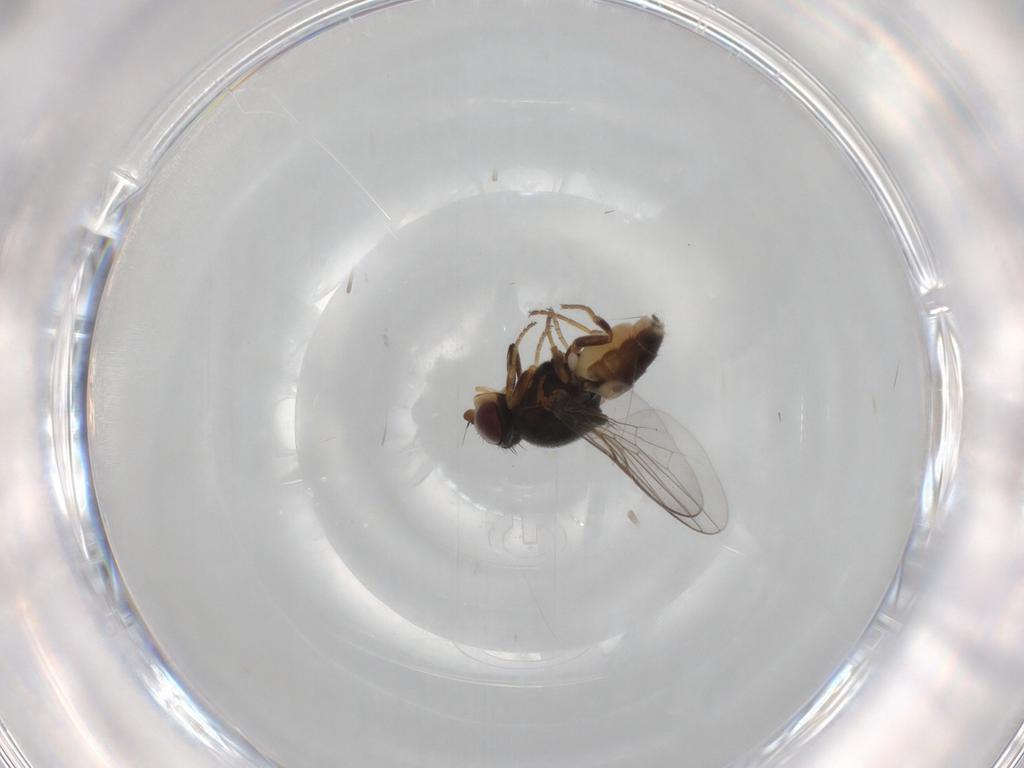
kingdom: Animalia
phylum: Arthropoda
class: Insecta
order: Diptera
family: Chloropidae
